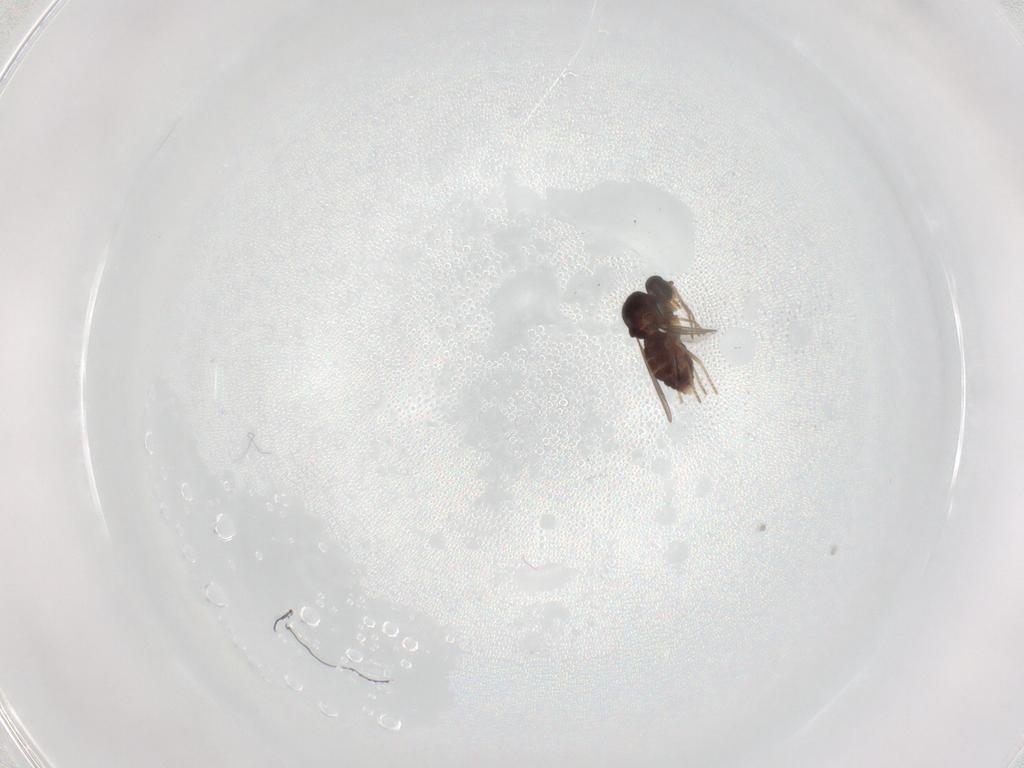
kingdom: Animalia
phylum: Arthropoda
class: Insecta
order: Diptera
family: Ceratopogonidae
